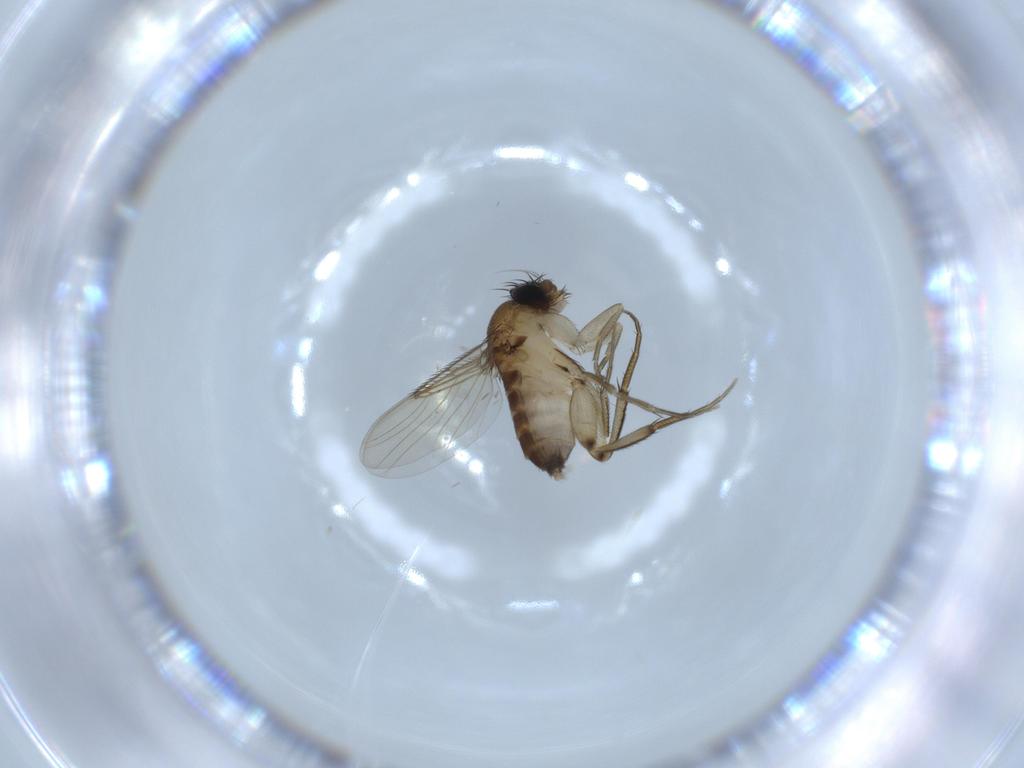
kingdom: Animalia
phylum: Arthropoda
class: Insecta
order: Diptera
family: Phoridae
